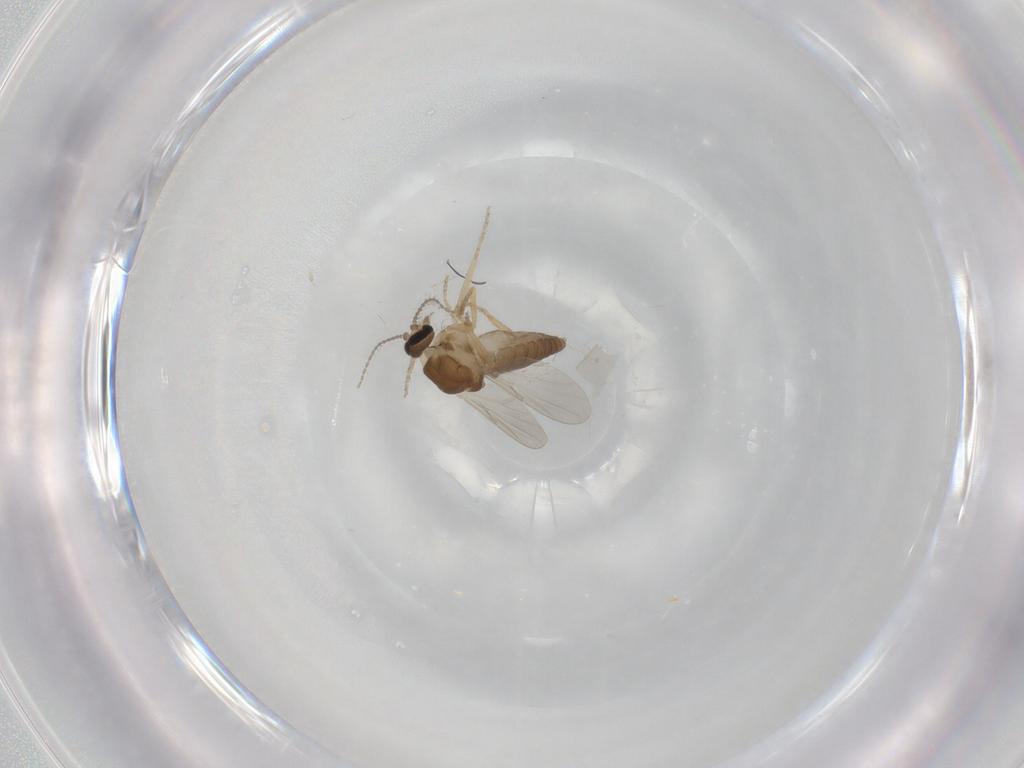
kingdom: Animalia
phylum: Arthropoda
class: Insecta
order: Diptera
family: Ceratopogonidae
